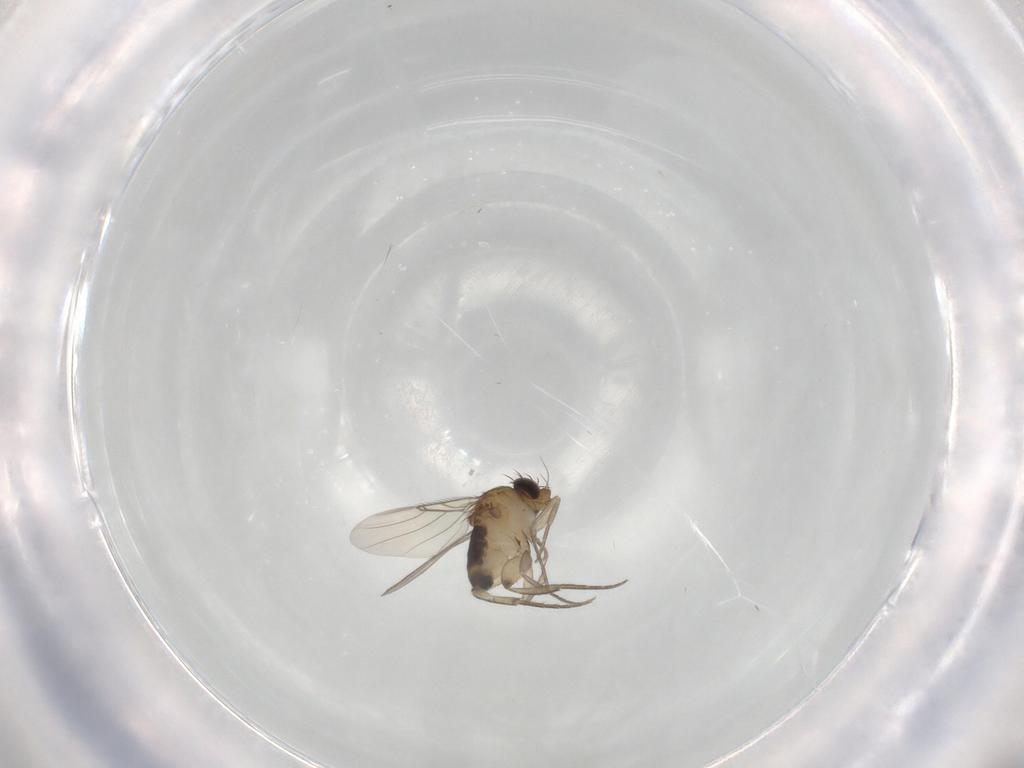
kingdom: Animalia
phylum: Arthropoda
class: Insecta
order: Diptera
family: Phoridae
